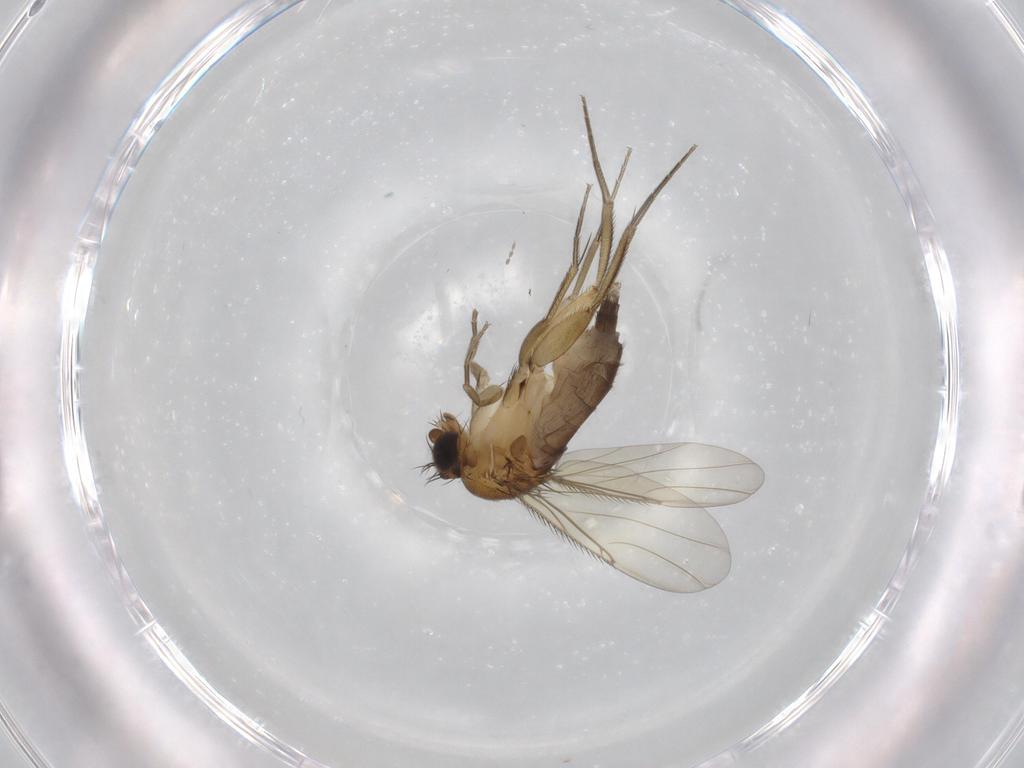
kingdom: Animalia
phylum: Arthropoda
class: Insecta
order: Diptera
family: Phoridae
